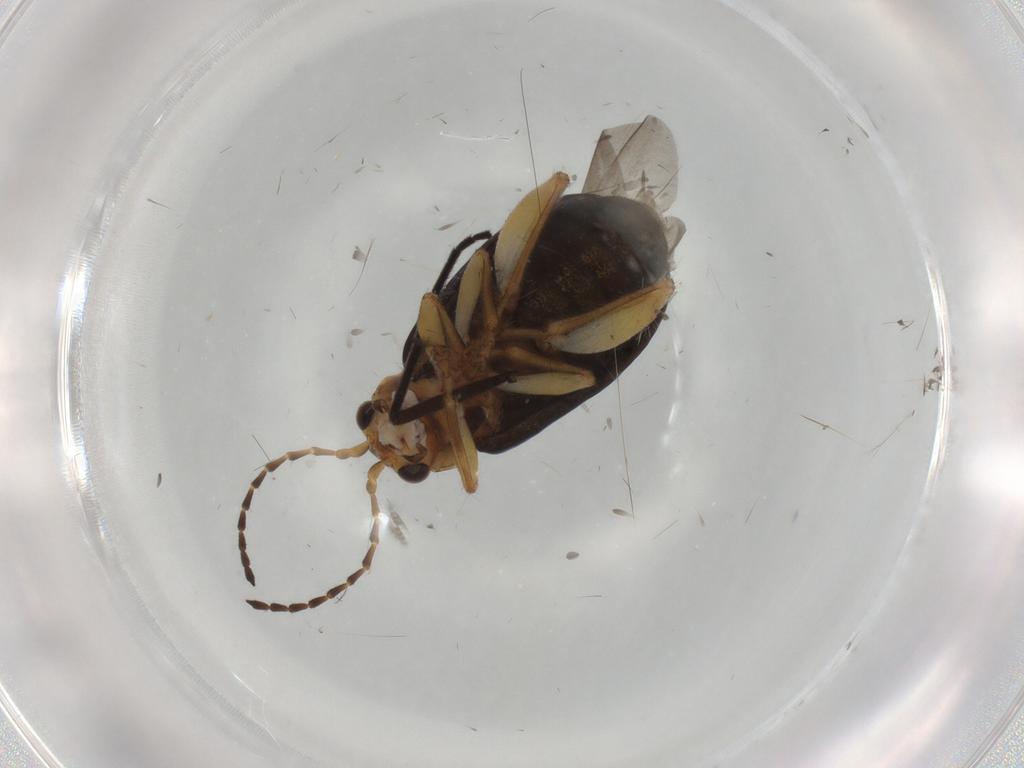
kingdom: Animalia
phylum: Arthropoda
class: Insecta
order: Coleoptera
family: Chrysomelidae
